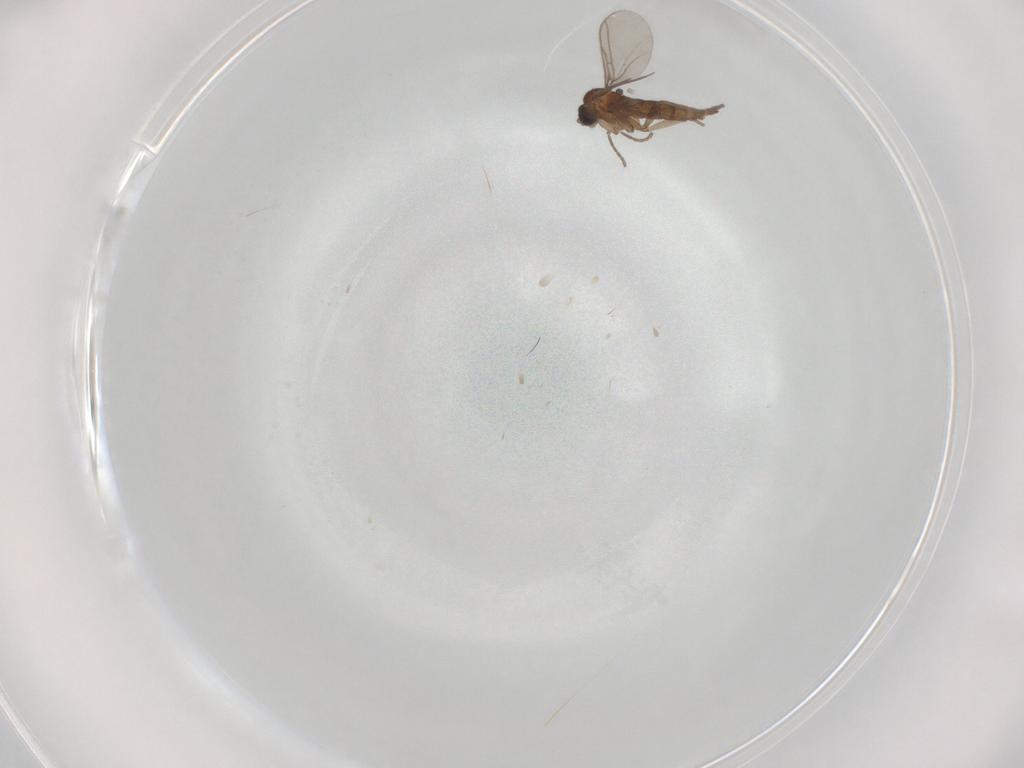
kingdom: Animalia
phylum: Arthropoda
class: Insecta
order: Diptera
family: Sciaridae
